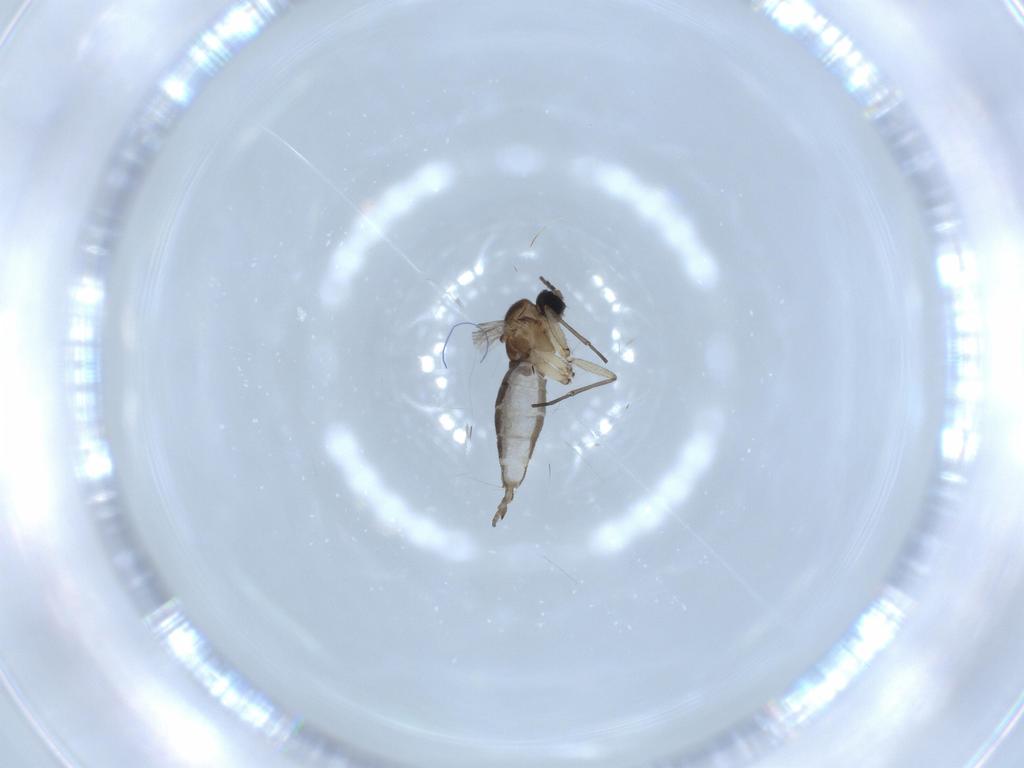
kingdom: Animalia
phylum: Arthropoda
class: Insecta
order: Diptera
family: Sciaridae
